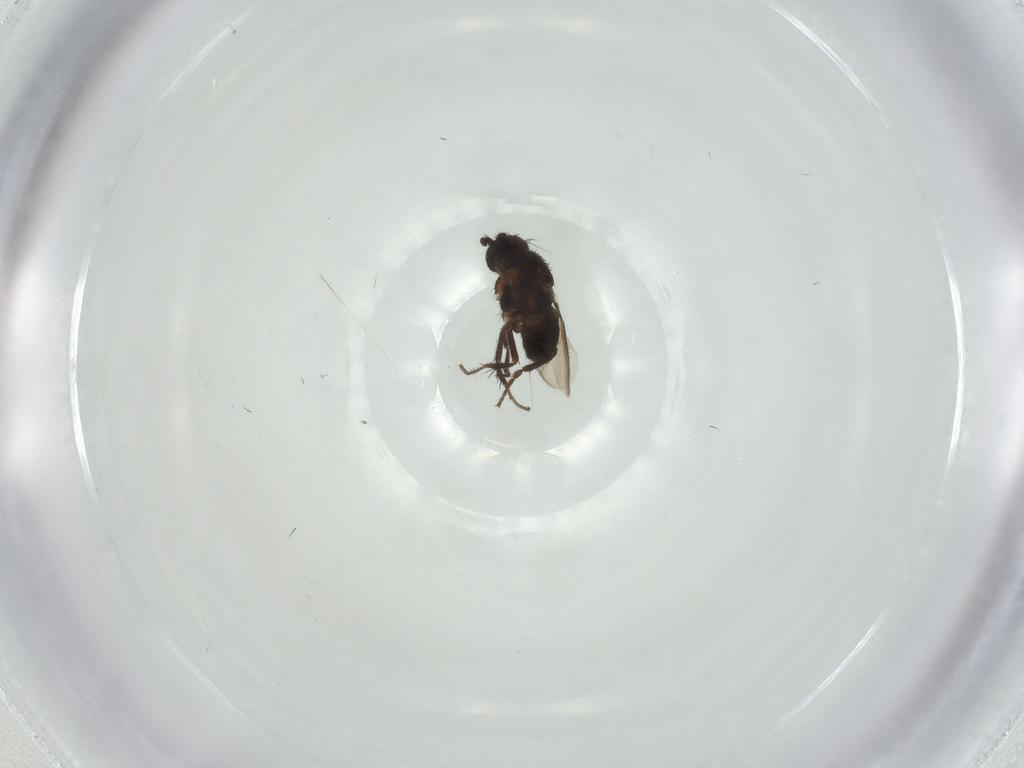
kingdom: Animalia
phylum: Arthropoda
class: Insecta
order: Diptera
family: Sphaeroceridae
